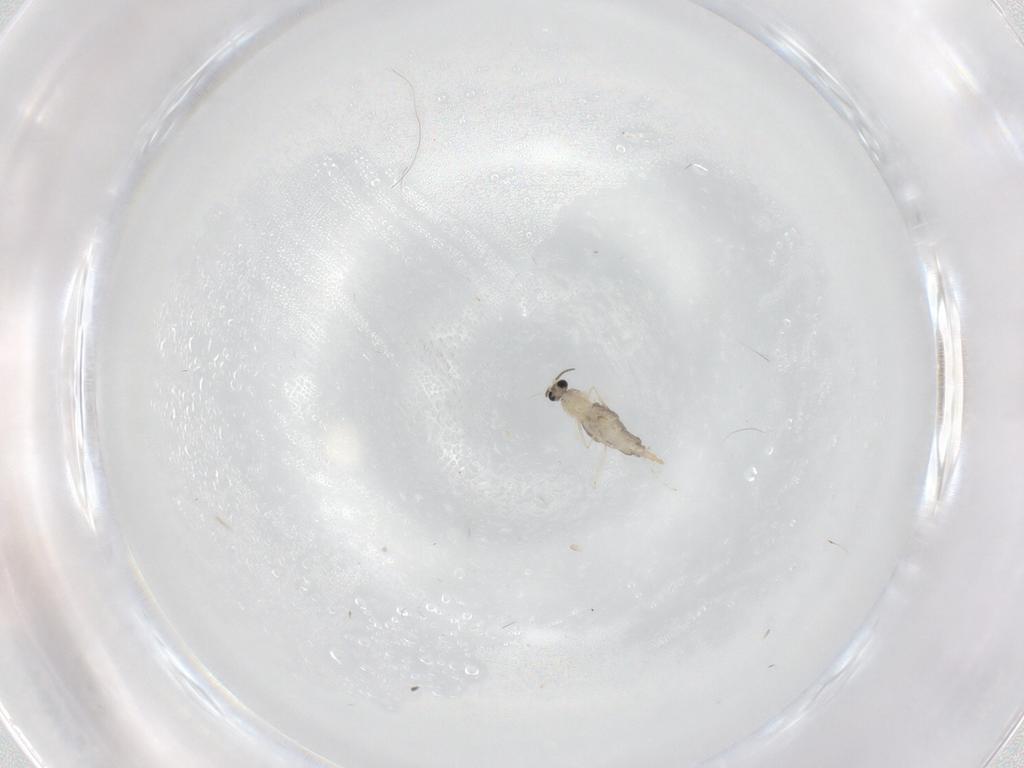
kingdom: Animalia
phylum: Arthropoda
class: Insecta
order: Diptera
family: Cecidomyiidae
